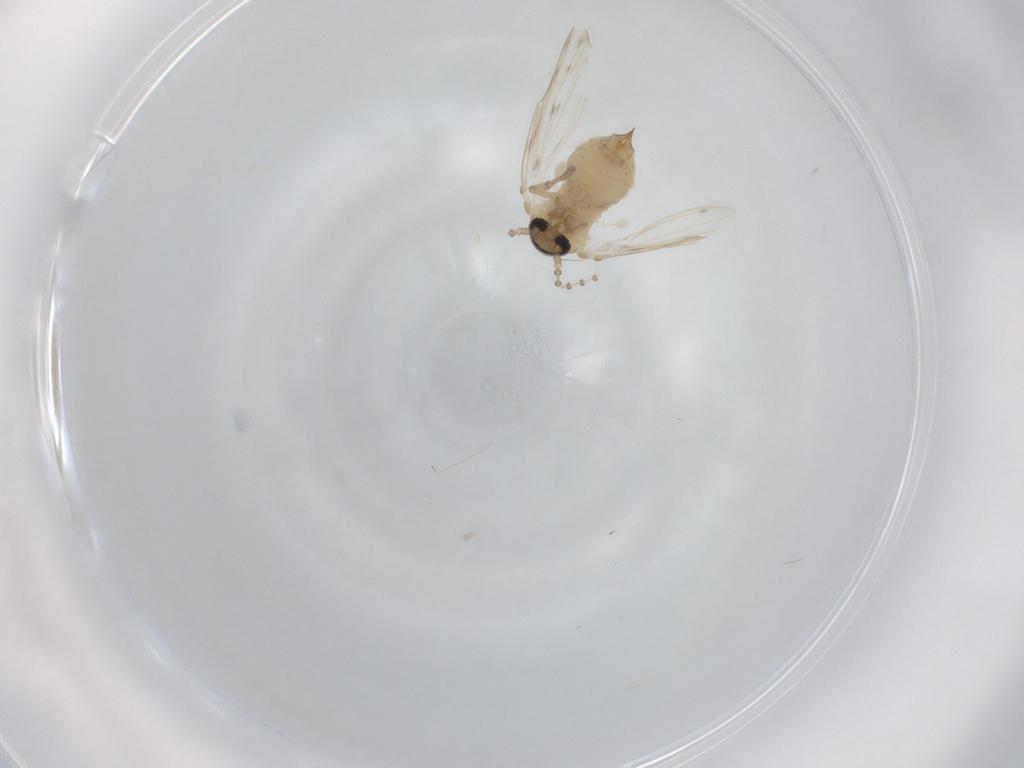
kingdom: Animalia
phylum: Arthropoda
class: Insecta
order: Diptera
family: Psychodidae
